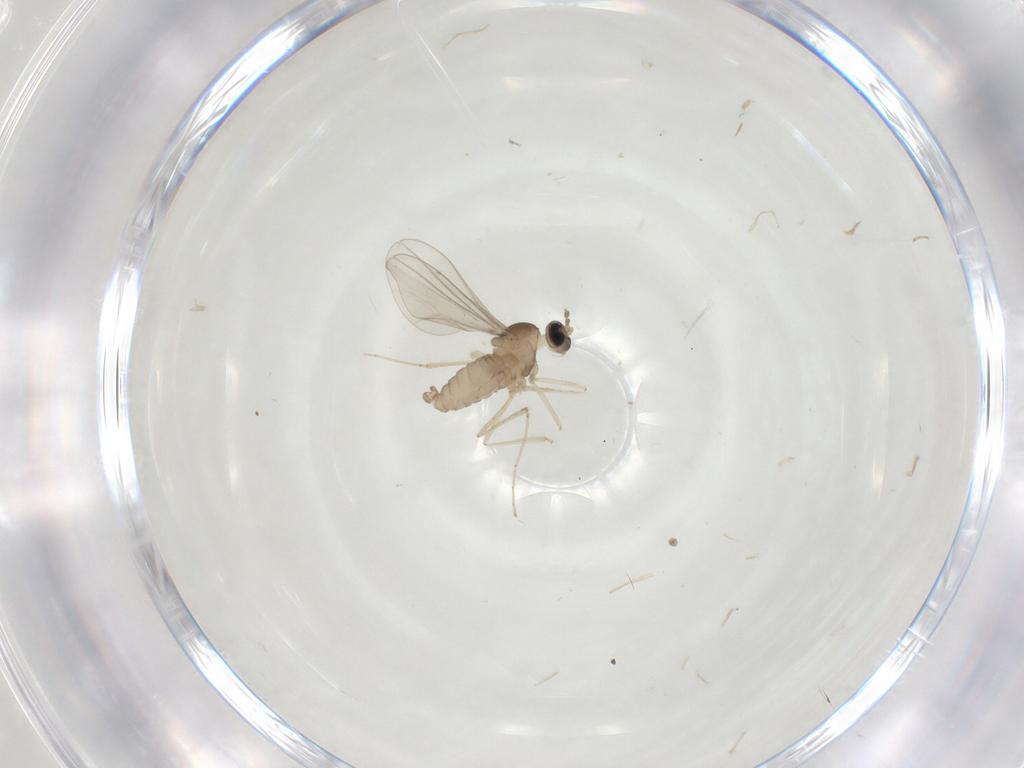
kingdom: Animalia
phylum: Arthropoda
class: Insecta
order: Diptera
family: Cecidomyiidae
